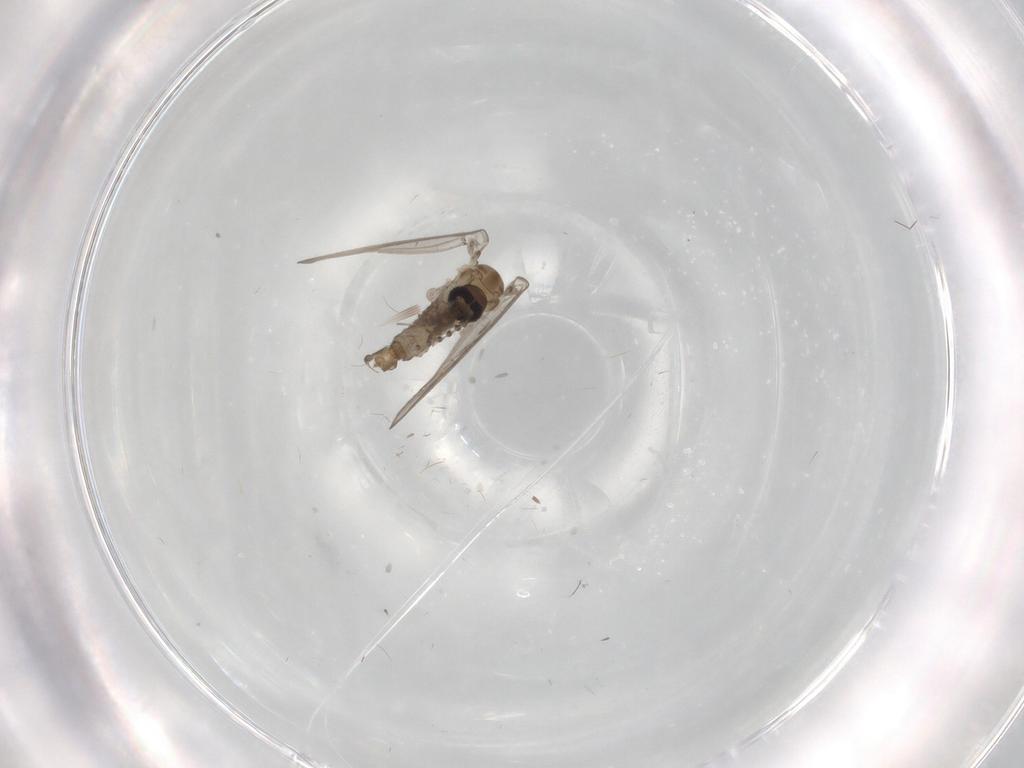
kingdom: Animalia
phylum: Arthropoda
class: Insecta
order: Diptera
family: Psychodidae
